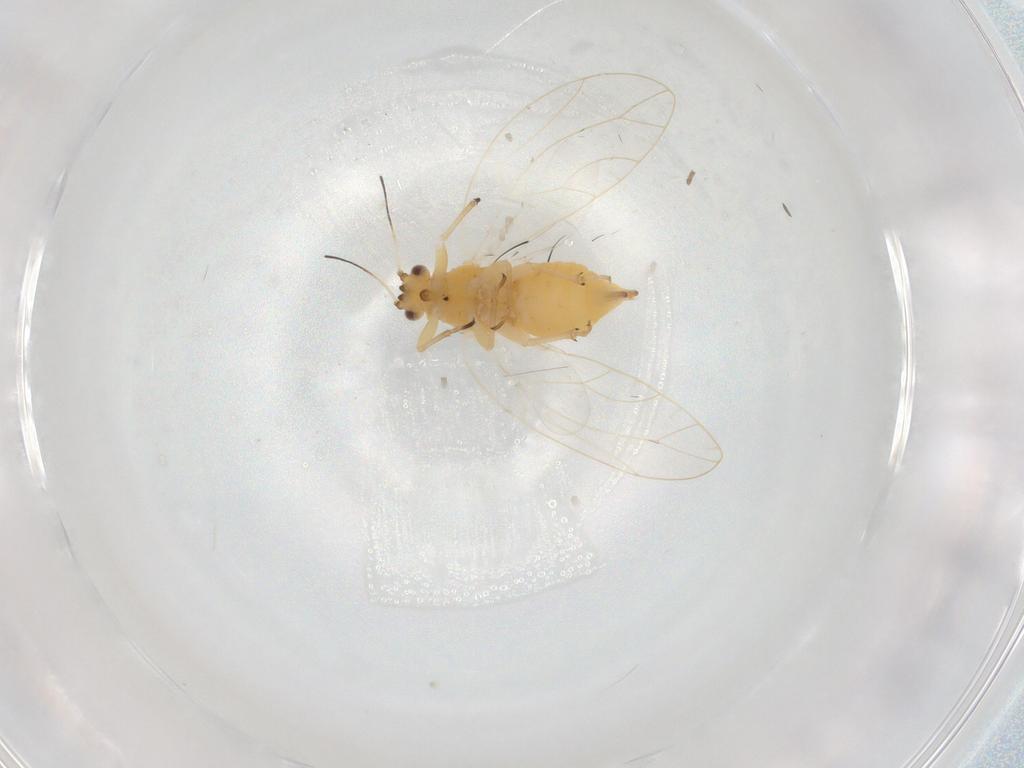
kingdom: Animalia
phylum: Arthropoda
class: Insecta
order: Hemiptera
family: Triozidae
